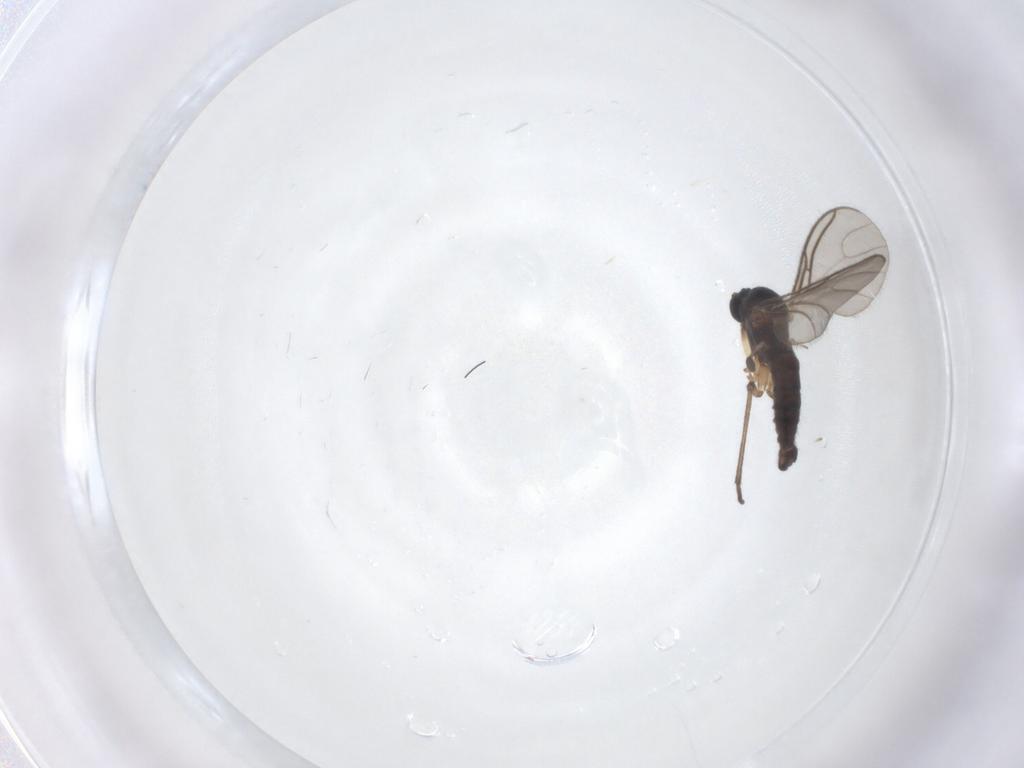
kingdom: Animalia
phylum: Arthropoda
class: Insecta
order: Diptera
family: Sciaridae
